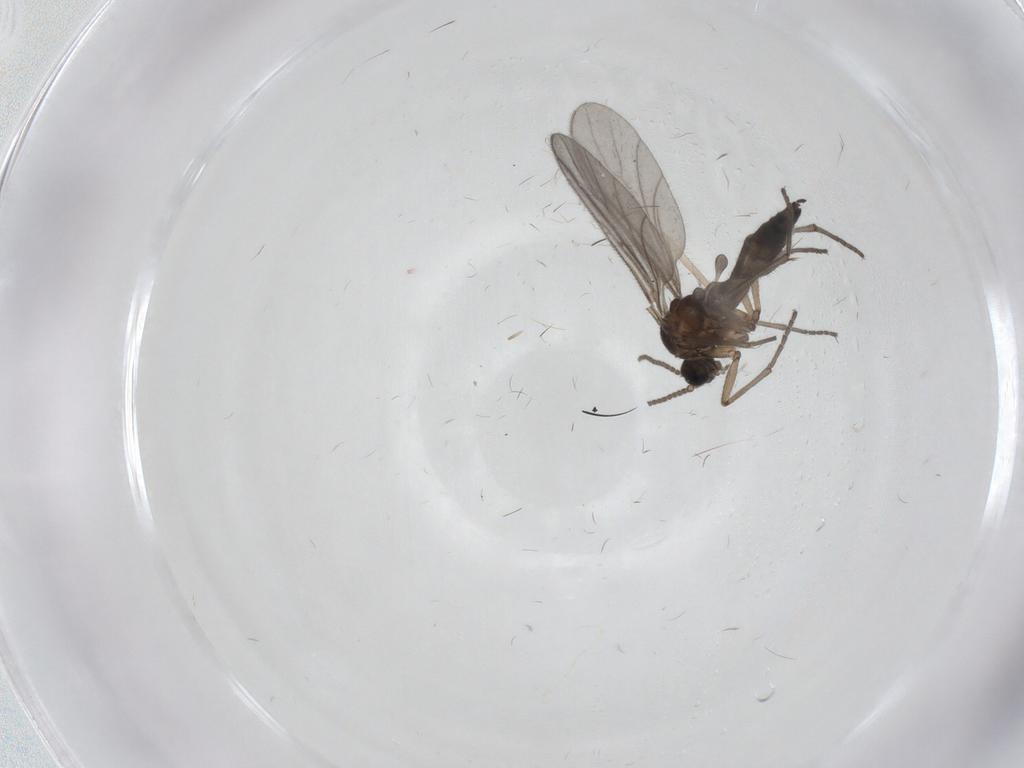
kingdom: Animalia
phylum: Arthropoda
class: Insecta
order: Diptera
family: Sciaridae
